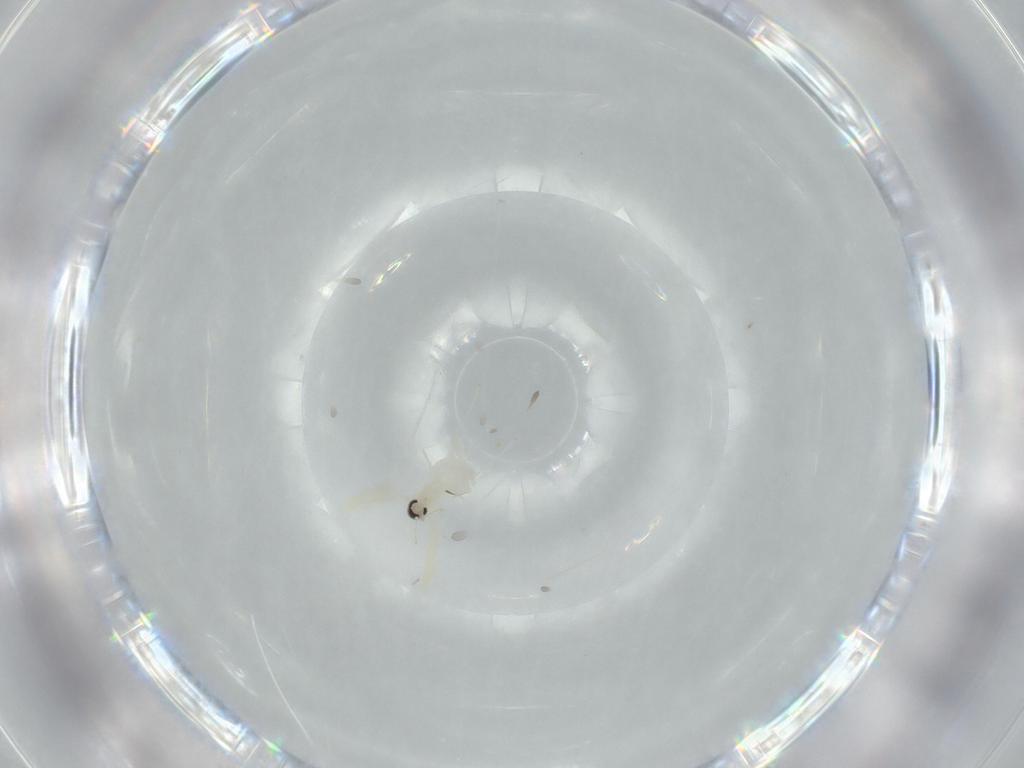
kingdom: Animalia
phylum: Arthropoda
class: Insecta
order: Diptera
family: Cecidomyiidae
